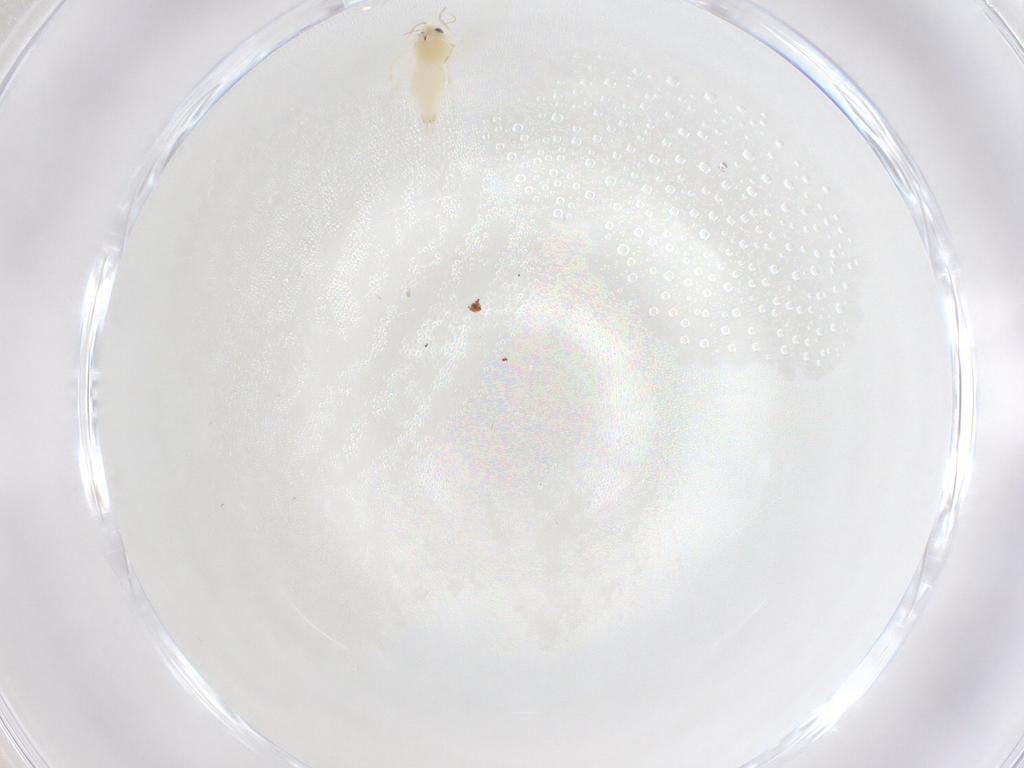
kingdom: Animalia
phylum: Arthropoda
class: Insecta
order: Hemiptera
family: Aleyrodidae
